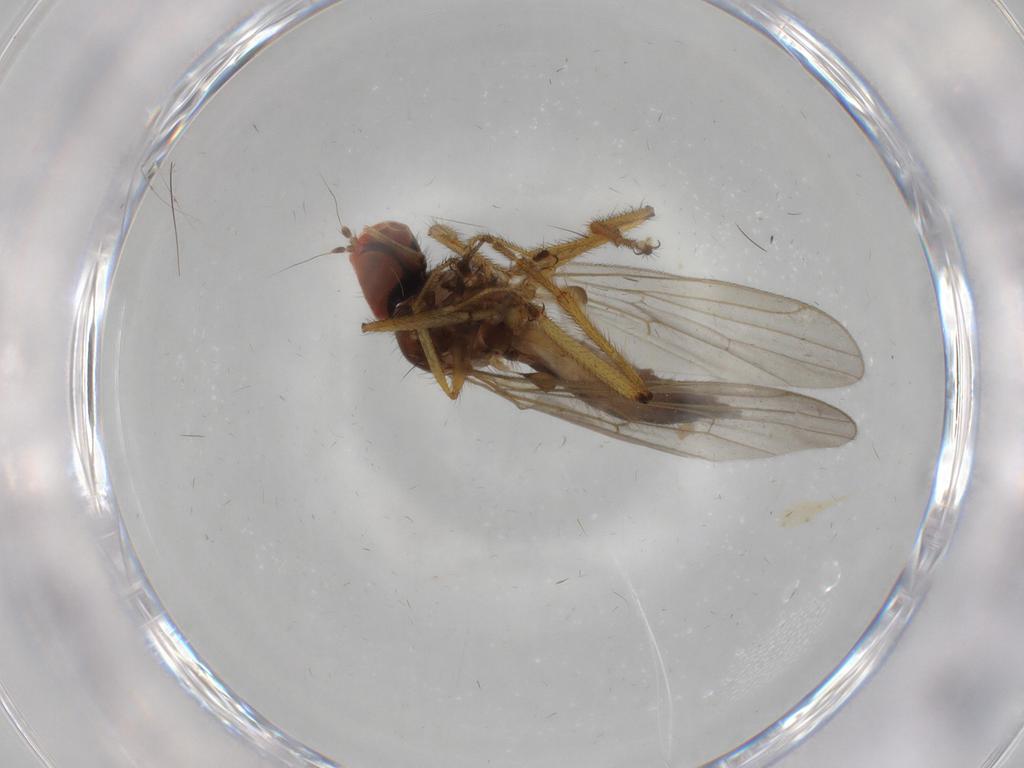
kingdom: Animalia
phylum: Arthropoda
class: Insecta
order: Diptera
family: Hybotidae
